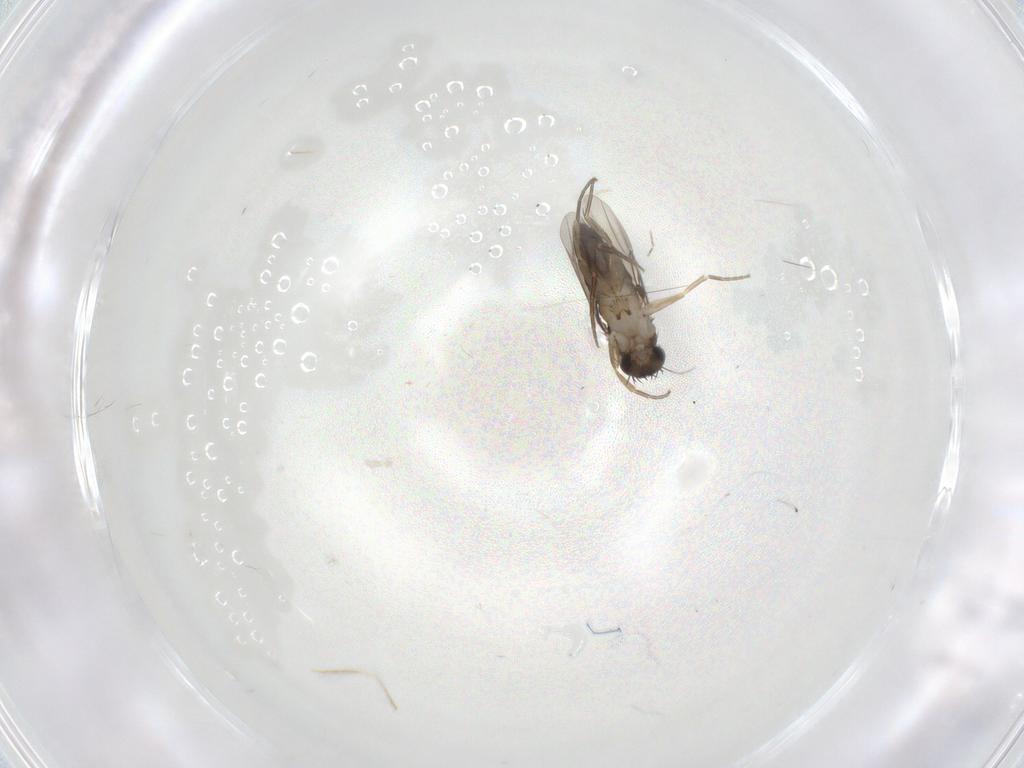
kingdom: Animalia
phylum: Arthropoda
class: Insecta
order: Diptera
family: Phoridae
